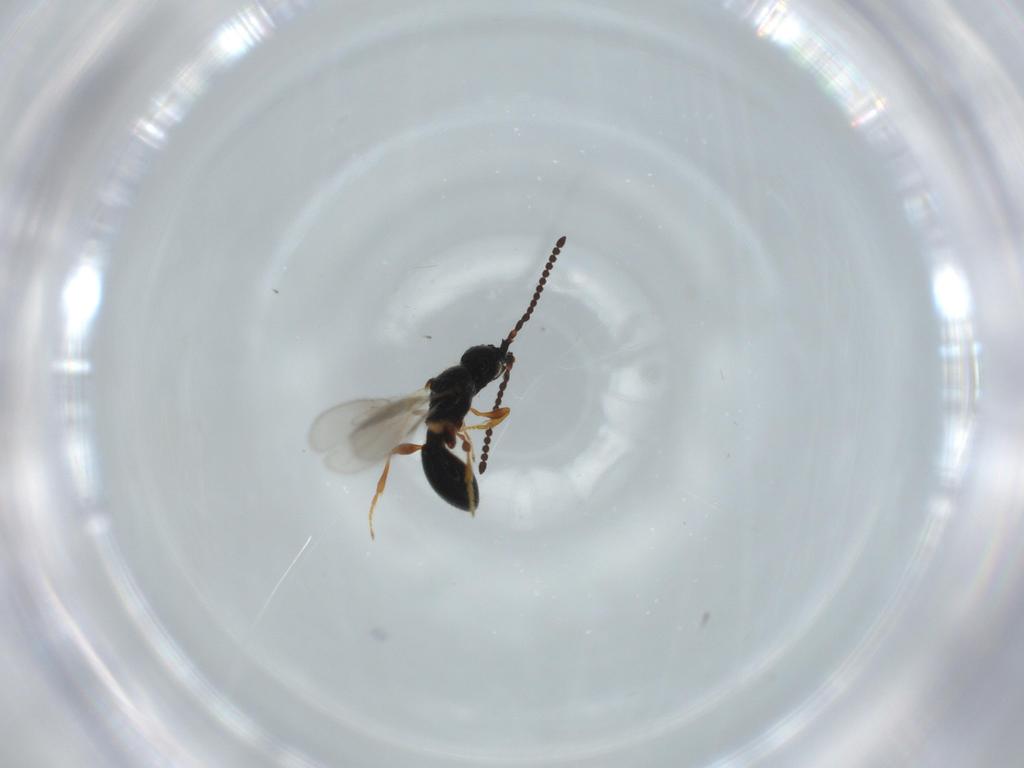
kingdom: Animalia
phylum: Arthropoda
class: Insecta
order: Hymenoptera
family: Diapriidae
